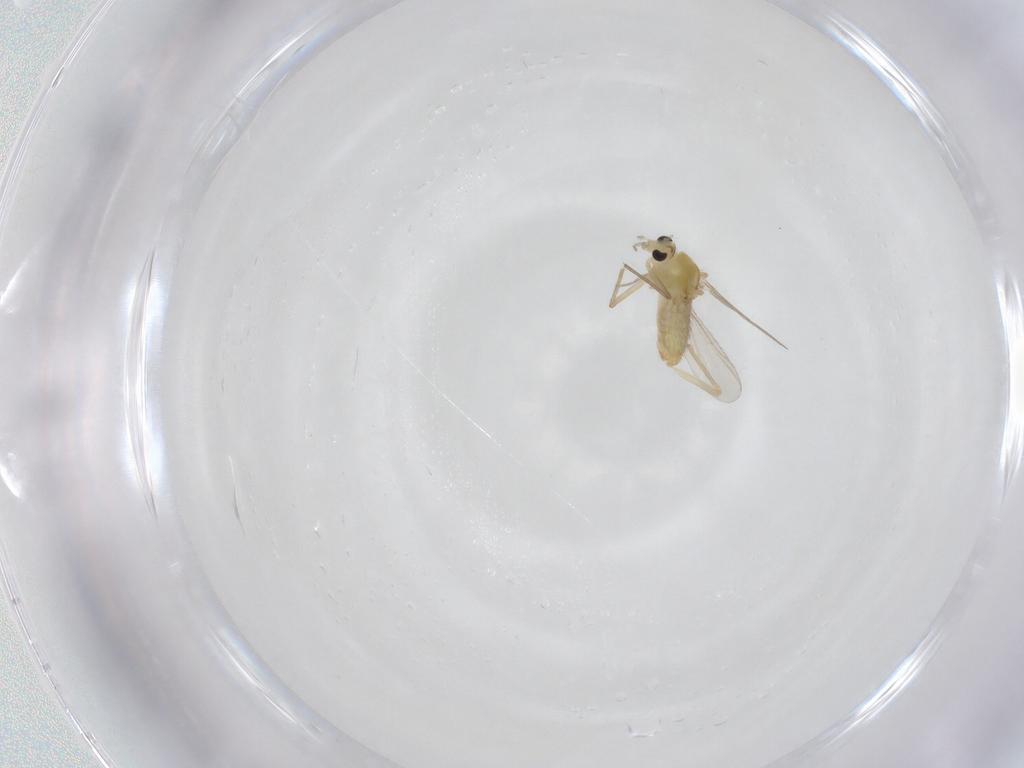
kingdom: Animalia
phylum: Arthropoda
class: Insecta
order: Diptera
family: Chironomidae
